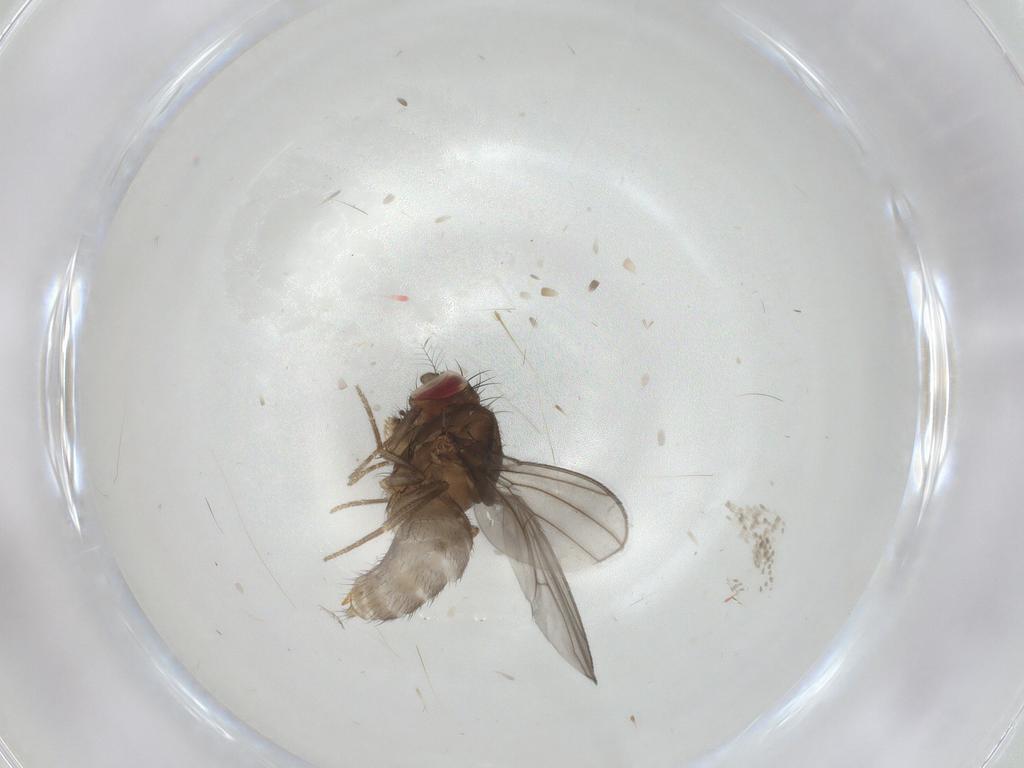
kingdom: Animalia
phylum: Arthropoda
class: Insecta
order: Diptera
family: Drosophilidae
